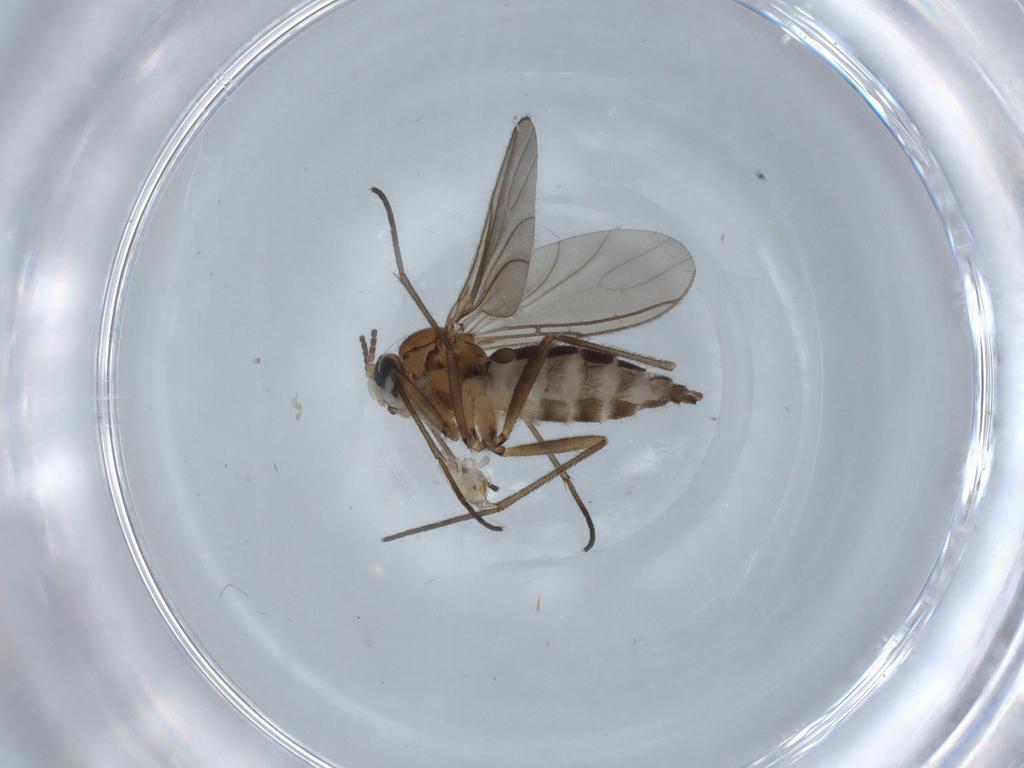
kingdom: Animalia
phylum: Arthropoda
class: Insecta
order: Diptera
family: Sciaridae
